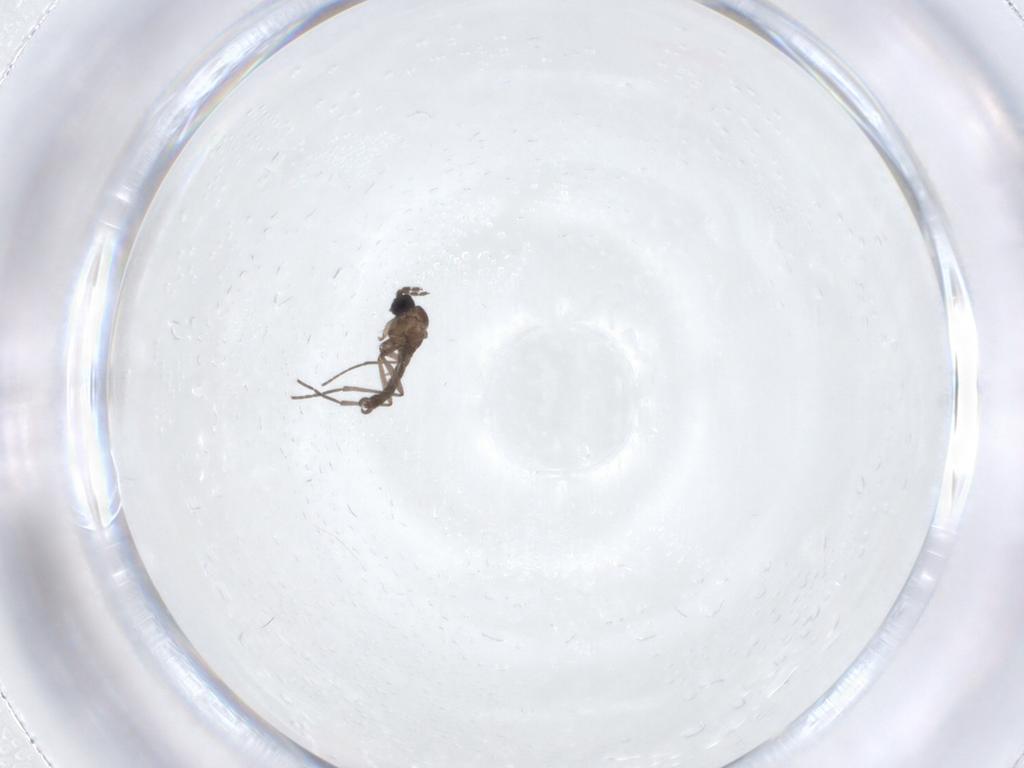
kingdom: Animalia
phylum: Arthropoda
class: Insecta
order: Diptera
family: Sciaridae
